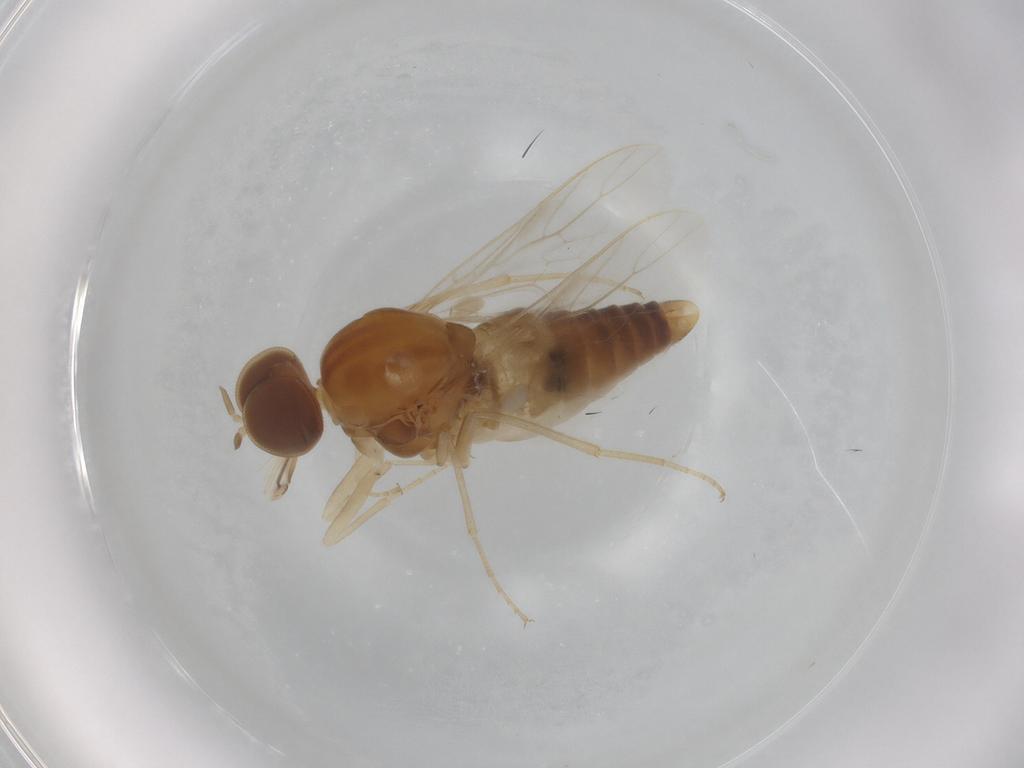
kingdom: Animalia
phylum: Arthropoda
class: Insecta
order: Diptera
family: Scenopinidae
